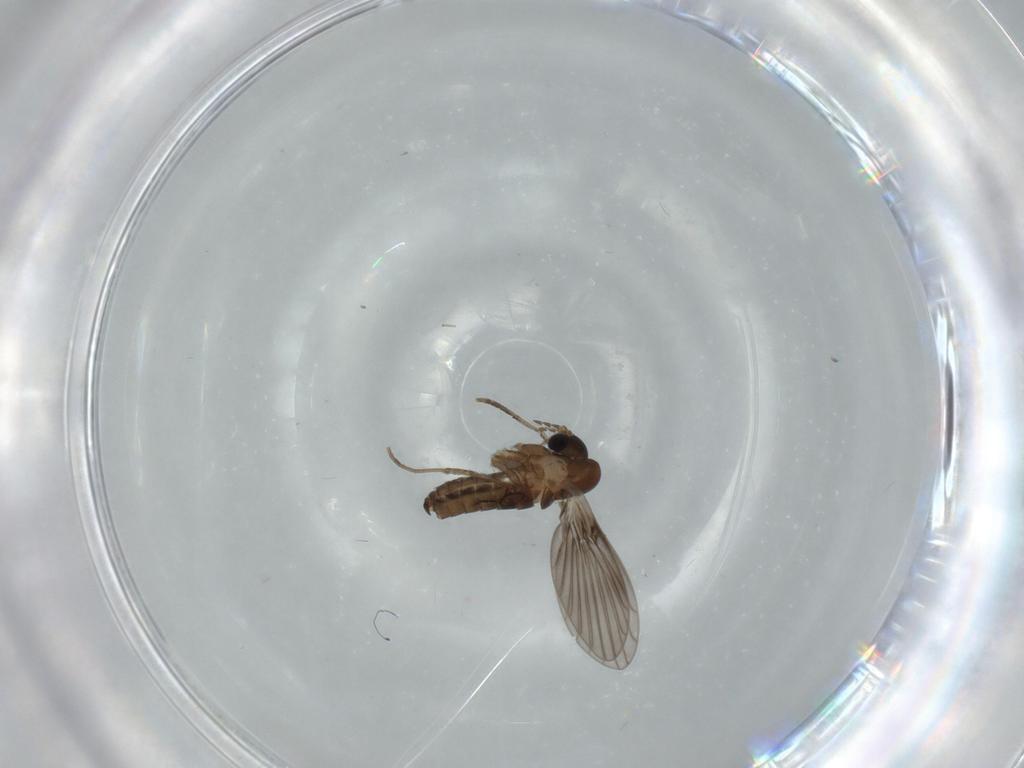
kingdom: Animalia
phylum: Arthropoda
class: Insecta
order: Diptera
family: Psychodidae
